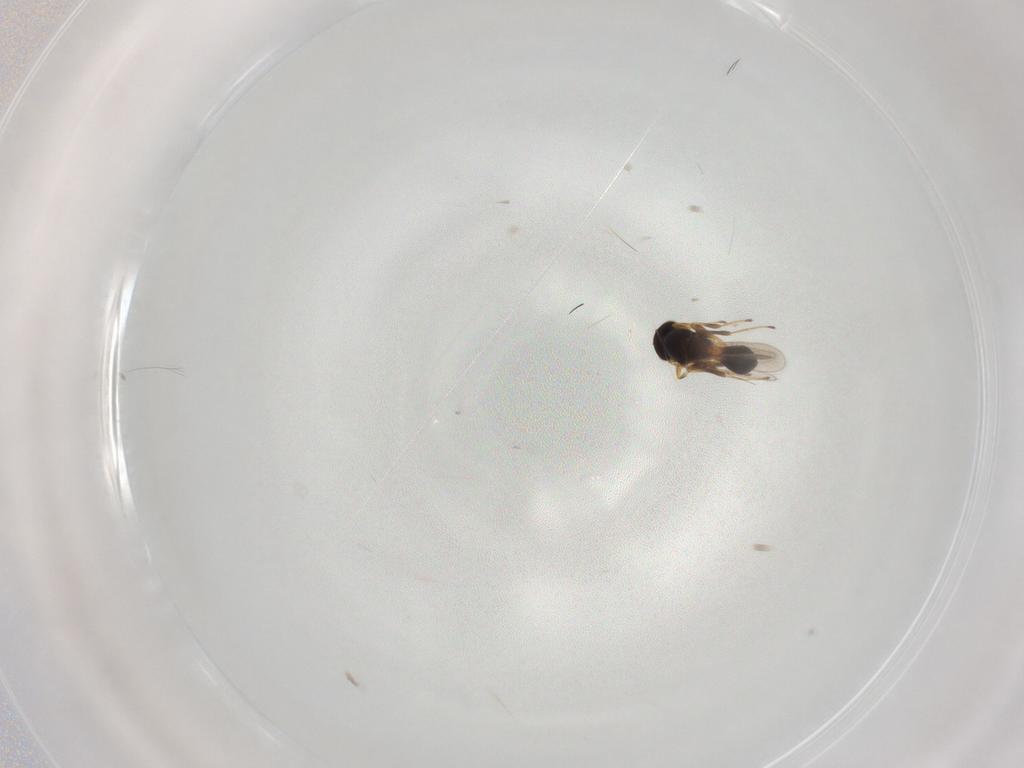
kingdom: Animalia
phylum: Arthropoda
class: Insecta
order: Hymenoptera
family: Platygastridae
